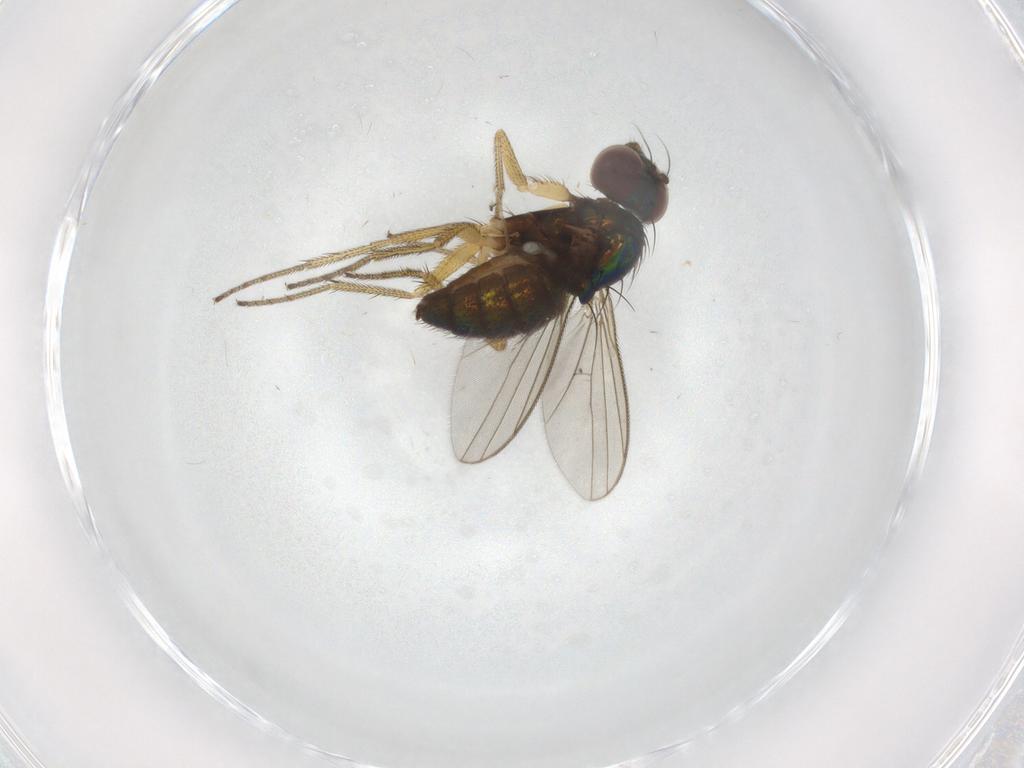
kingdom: Animalia
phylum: Arthropoda
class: Insecta
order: Diptera
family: Dolichopodidae
